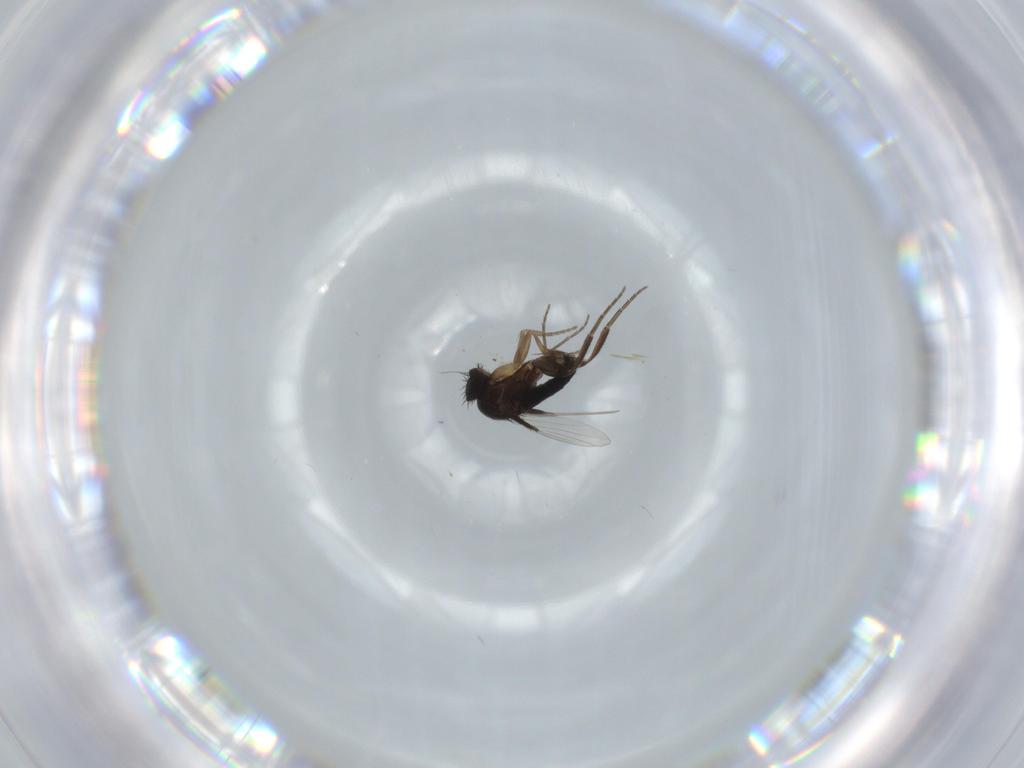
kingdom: Animalia
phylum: Arthropoda
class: Insecta
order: Diptera
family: Phoridae
